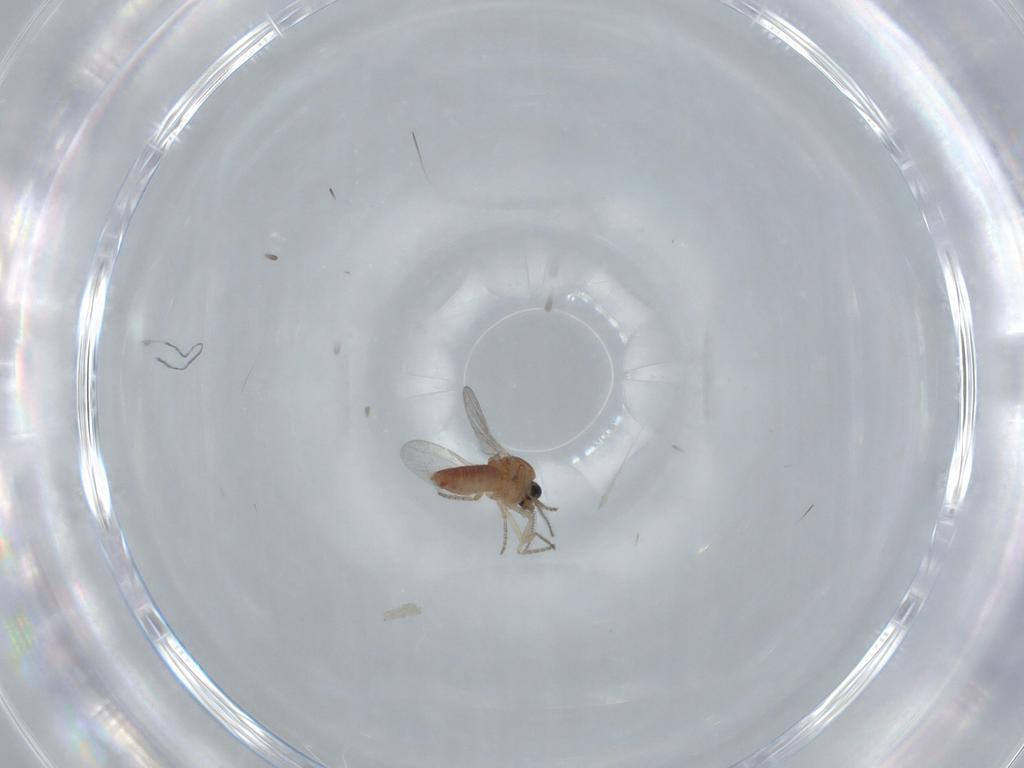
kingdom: Animalia
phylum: Arthropoda
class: Insecta
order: Diptera
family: Ceratopogonidae
